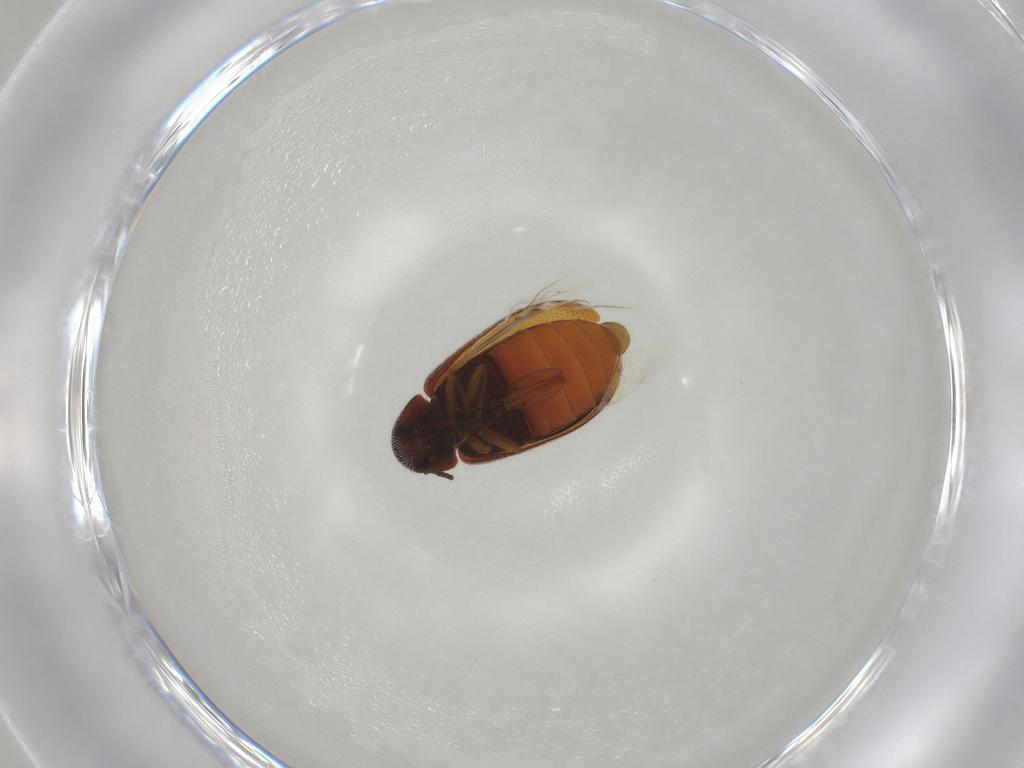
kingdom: Animalia
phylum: Arthropoda
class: Insecta
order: Coleoptera
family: Rhadalidae
